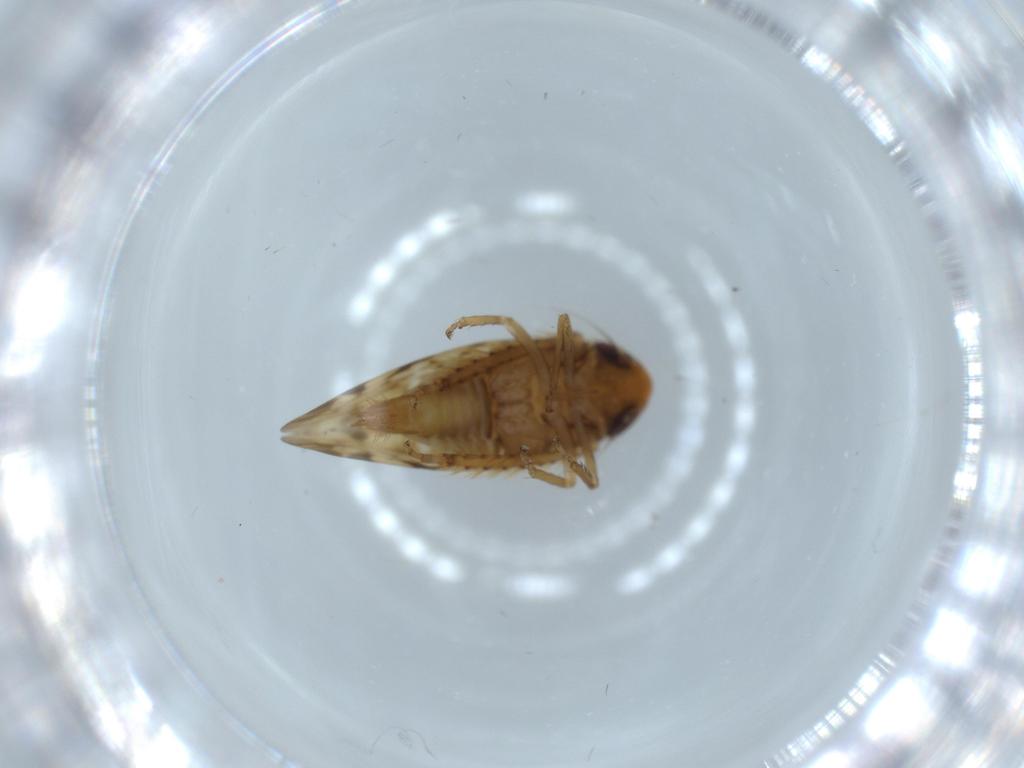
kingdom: Animalia
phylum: Arthropoda
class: Insecta
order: Hemiptera
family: Cicadellidae
